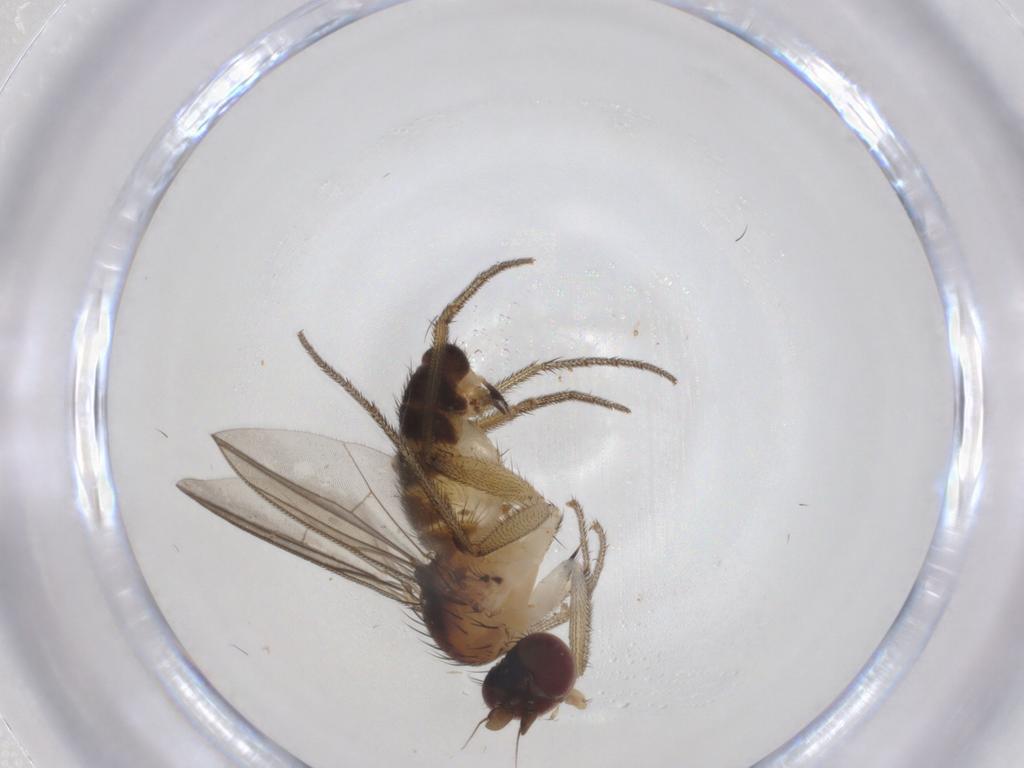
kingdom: Animalia
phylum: Arthropoda
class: Insecta
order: Diptera
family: Dolichopodidae
